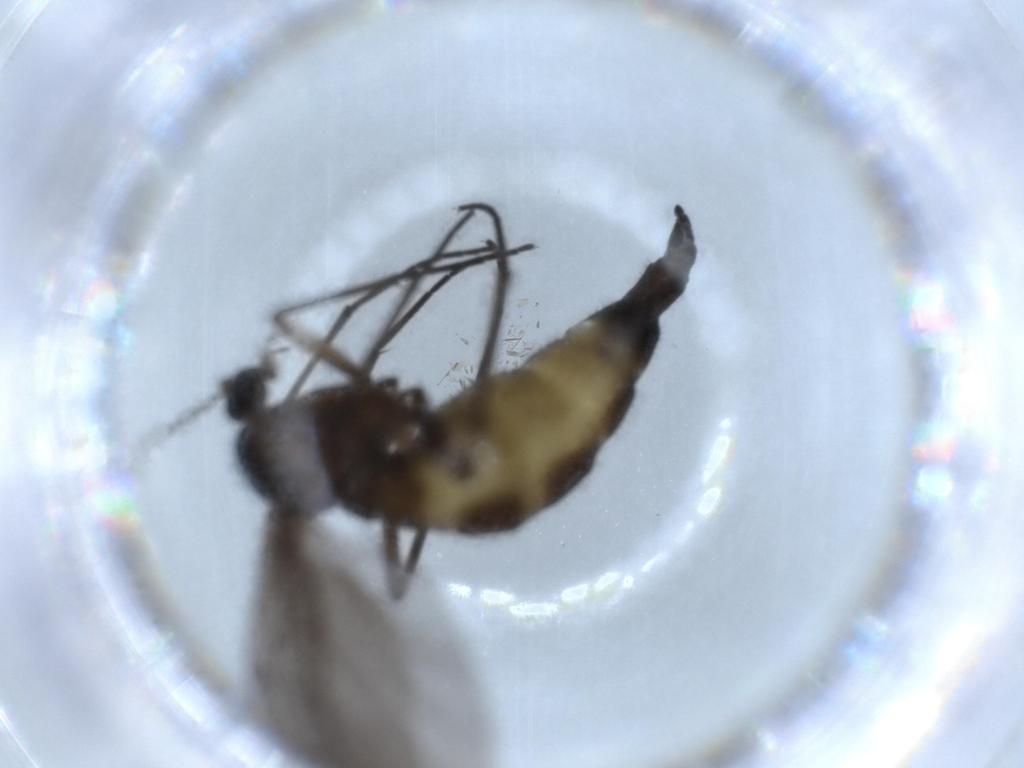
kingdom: Animalia
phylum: Arthropoda
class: Insecta
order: Diptera
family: Sciaridae
